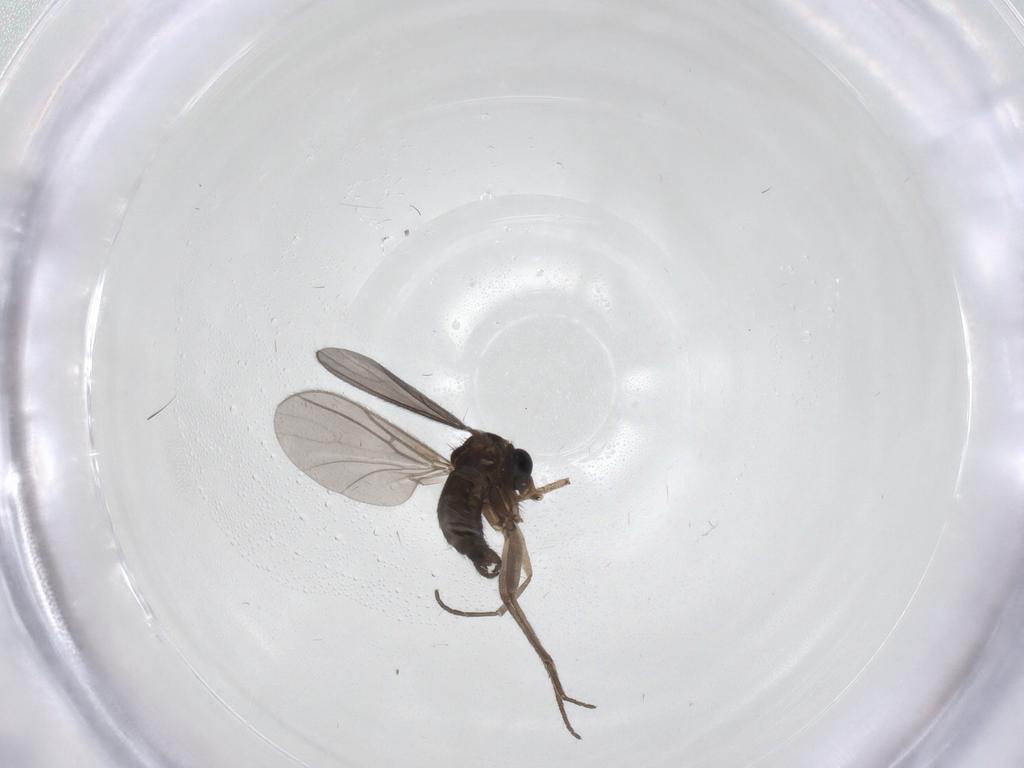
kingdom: Animalia
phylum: Arthropoda
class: Insecta
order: Diptera
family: Sciaridae
